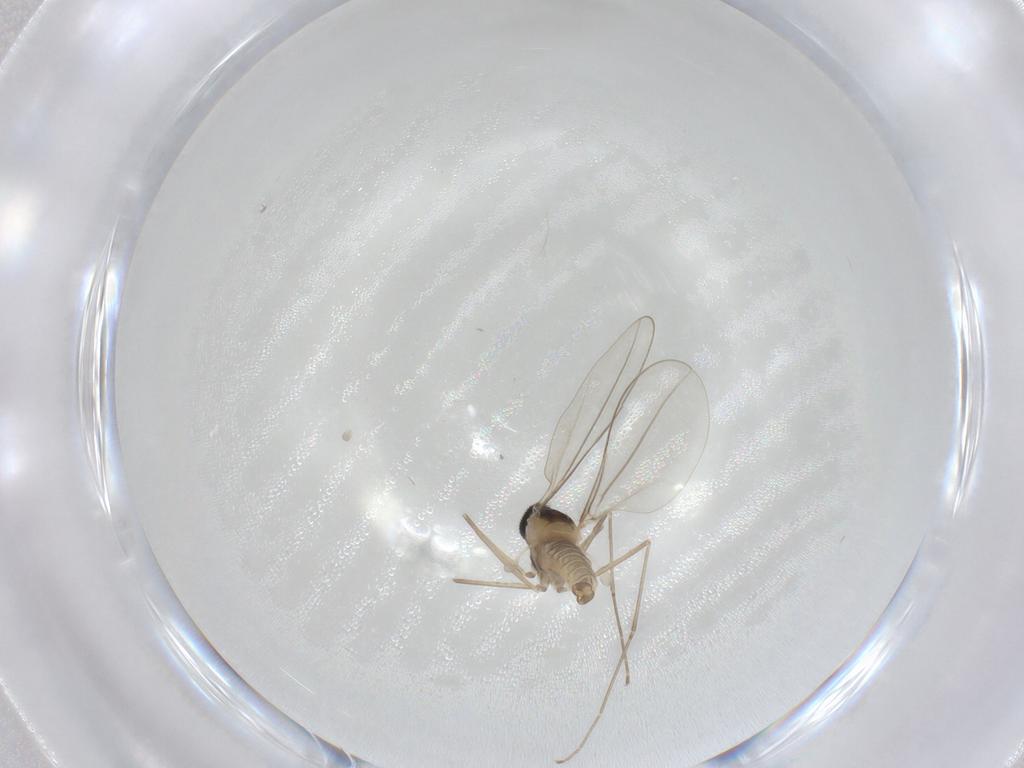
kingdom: Animalia
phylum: Arthropoda
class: Insecta
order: Diptera
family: Cecidomyiidae
